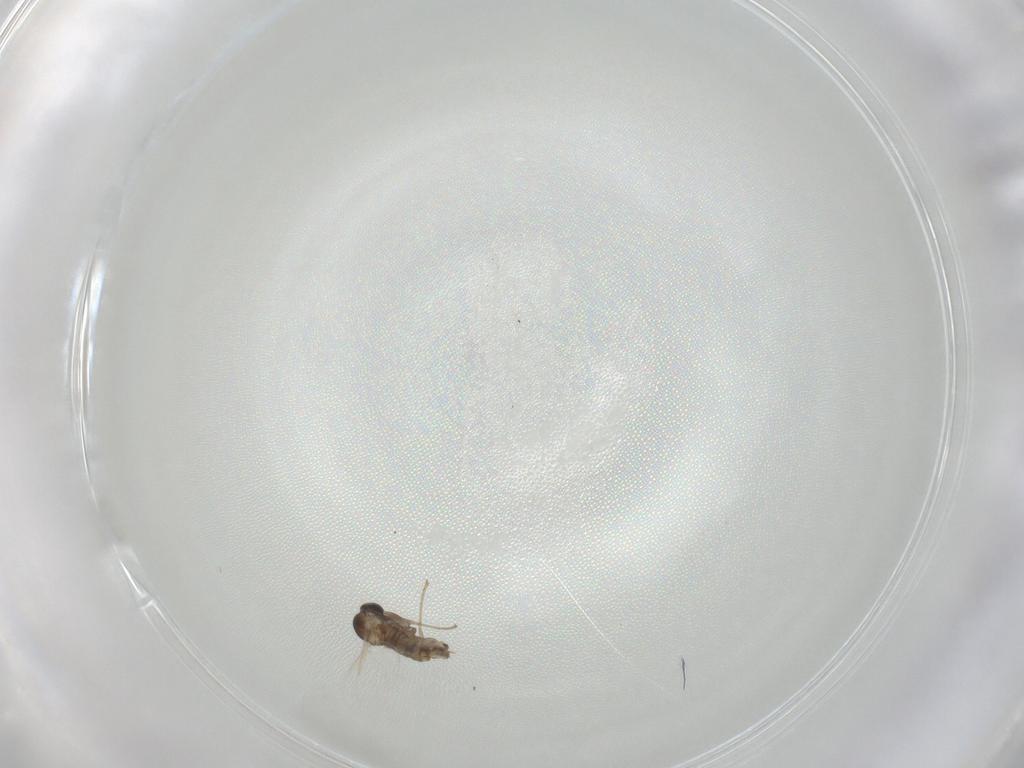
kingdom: Animalia
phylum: Arthropoda
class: Insecta
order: Diptera
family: Cecidomyiidae
